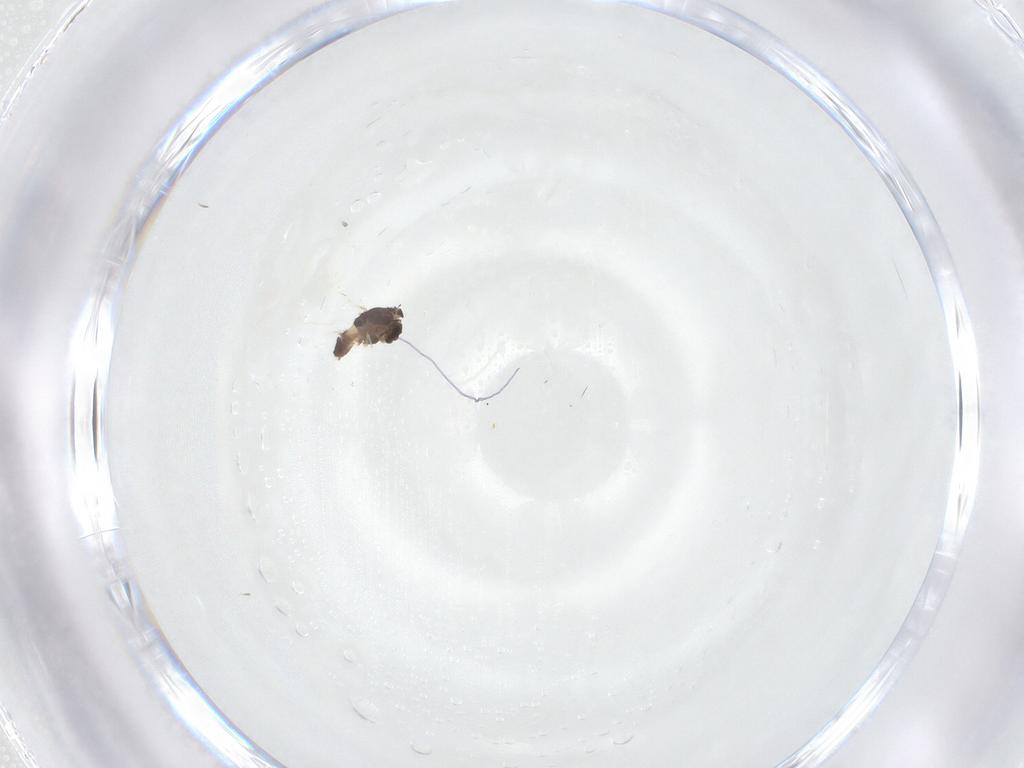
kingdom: Animalia
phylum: Arthropoda
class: Insecta
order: Diptera
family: Chironomidae
